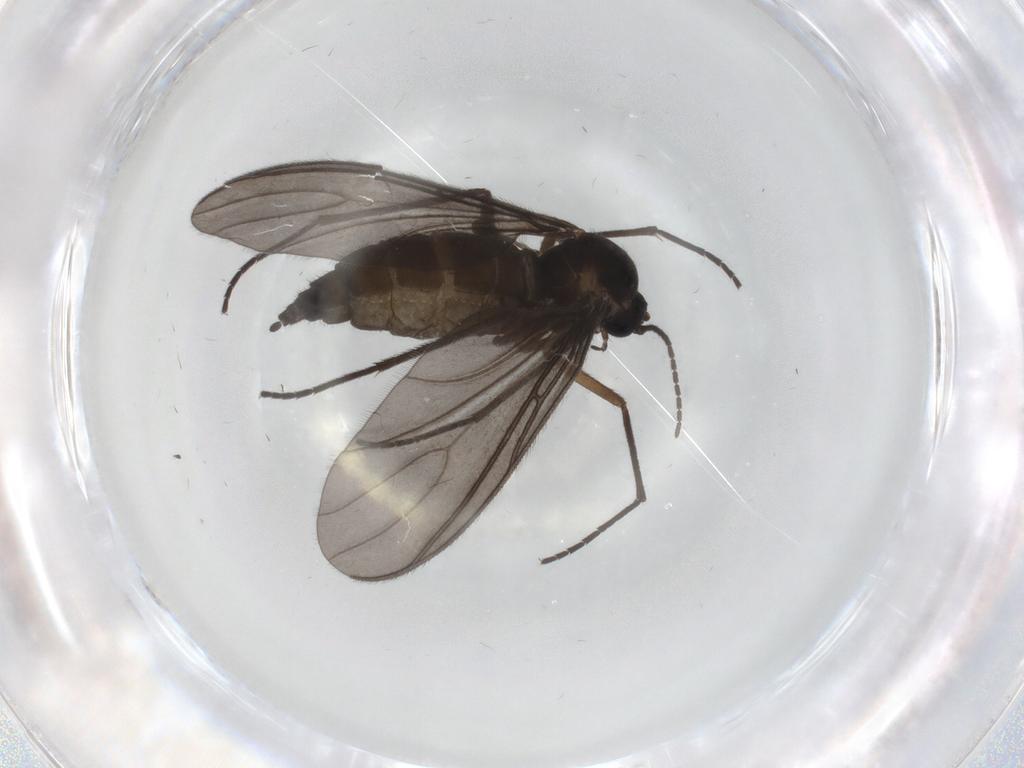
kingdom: Animalia
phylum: Arthropoda
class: Insecta
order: Diptera
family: Sciaridae
